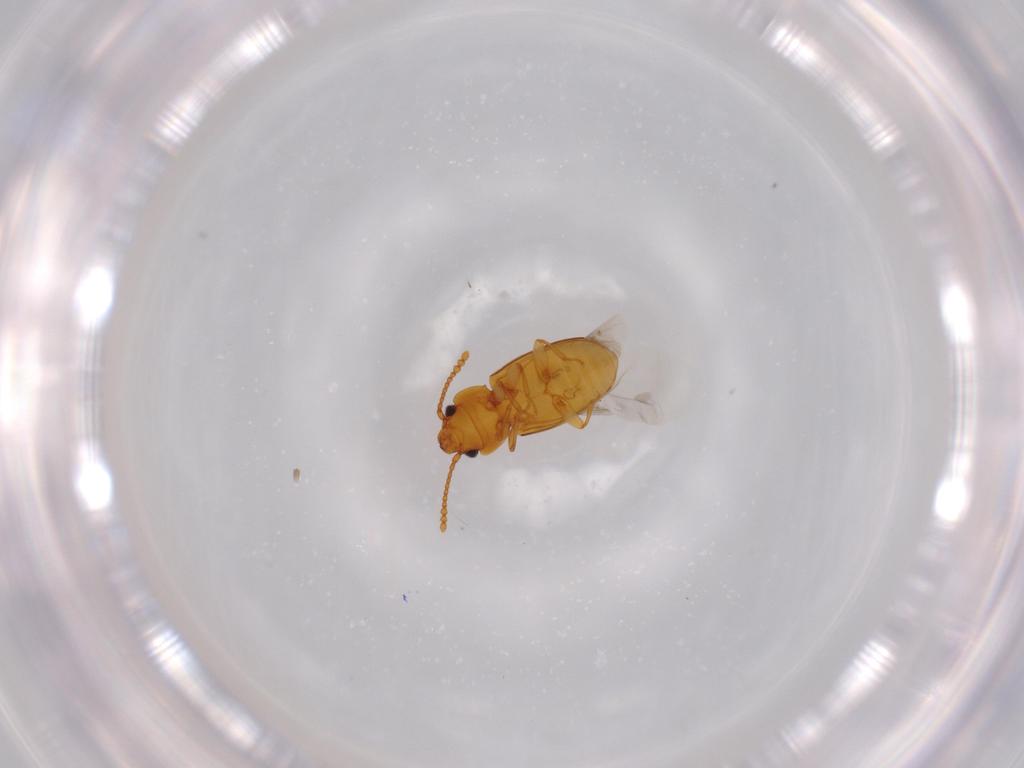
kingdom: Animalia
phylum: Arthropoda
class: Insecta
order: Coleoptera
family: Laemophloeidae
